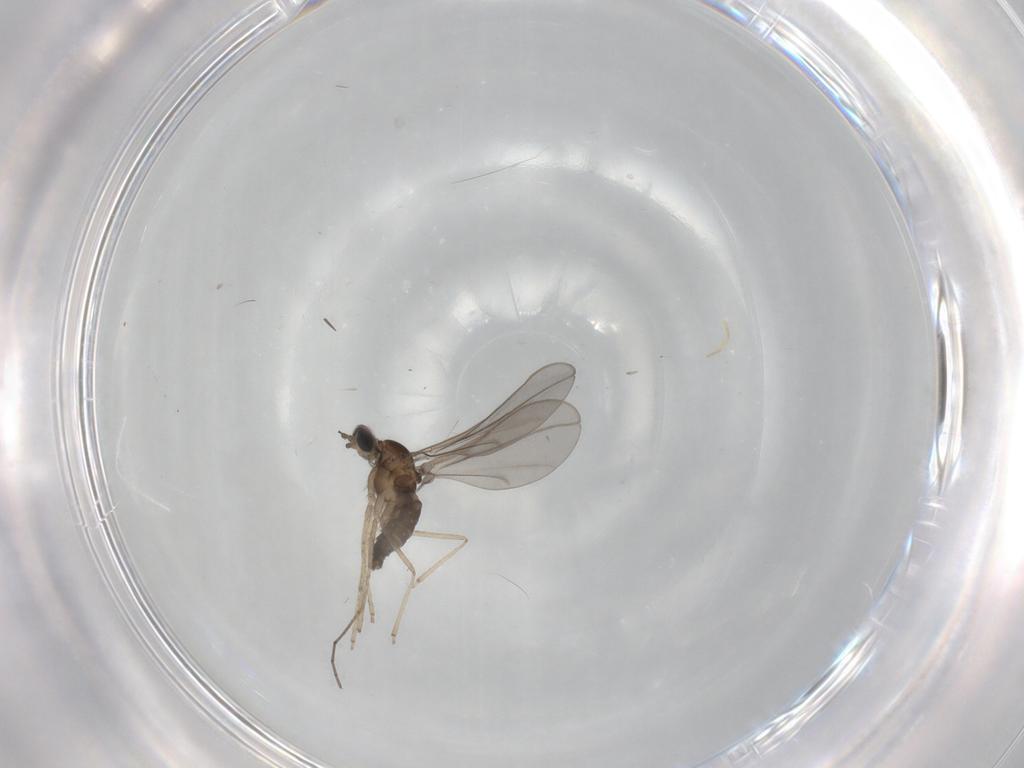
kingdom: Animalia
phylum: Arthropoda
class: Insecta
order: Diptera
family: Cecidomyiidae
